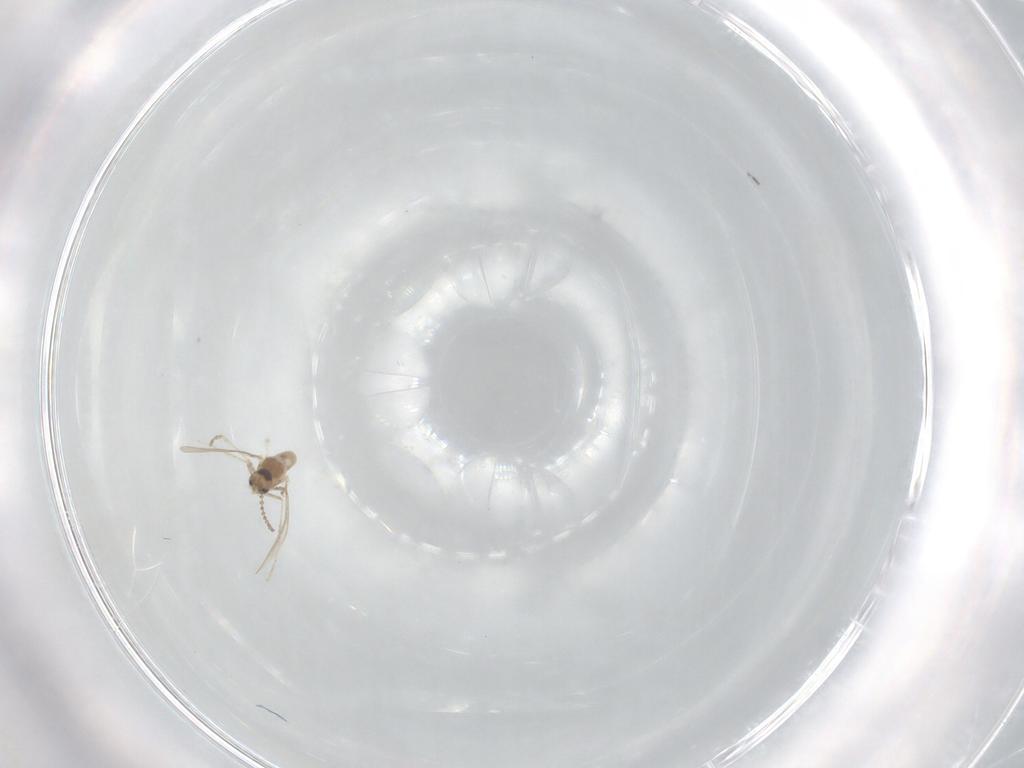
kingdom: Animalia
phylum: Arthropoda
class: Insecta
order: Diptera
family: Cecidomyiidae
